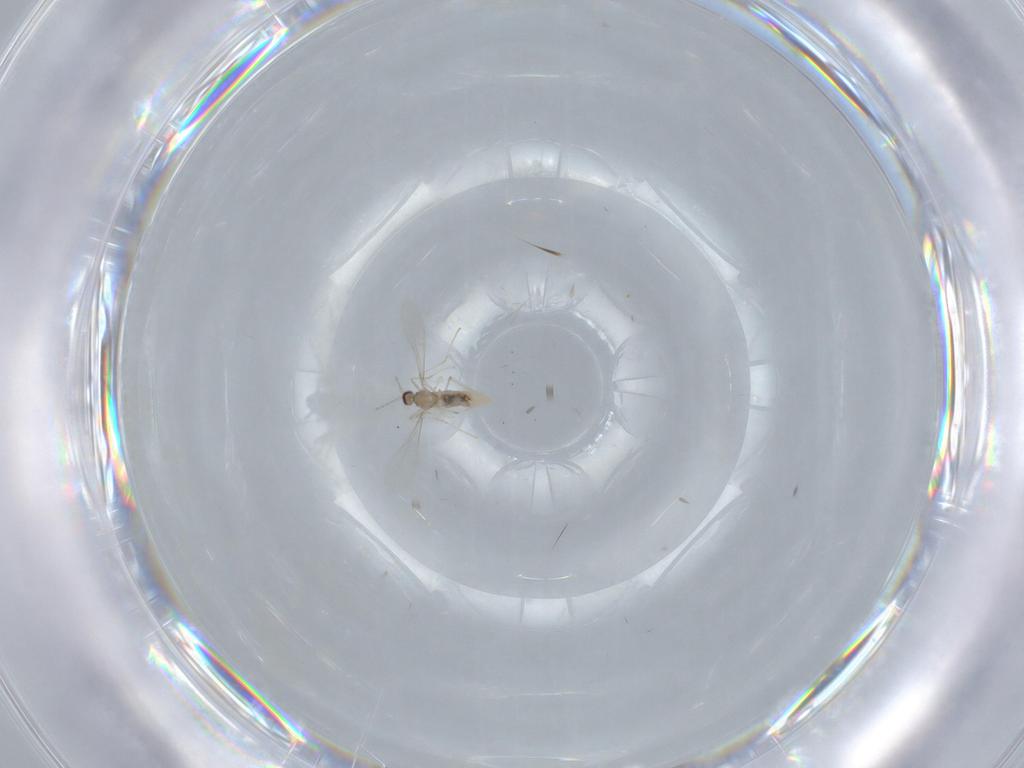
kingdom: Animalia
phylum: Arthropoda
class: Insecta
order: Diptera
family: Cecidomyiidae
